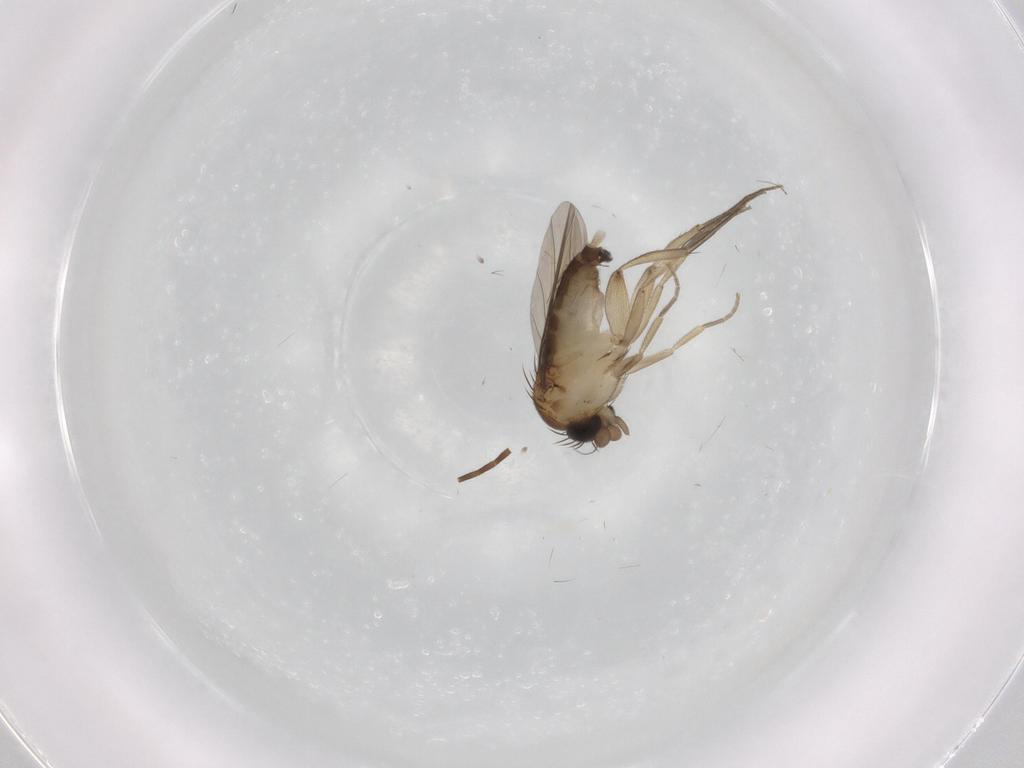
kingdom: Animalia
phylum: Arthropoda
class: Insecta
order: Diptera
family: Phoridae
